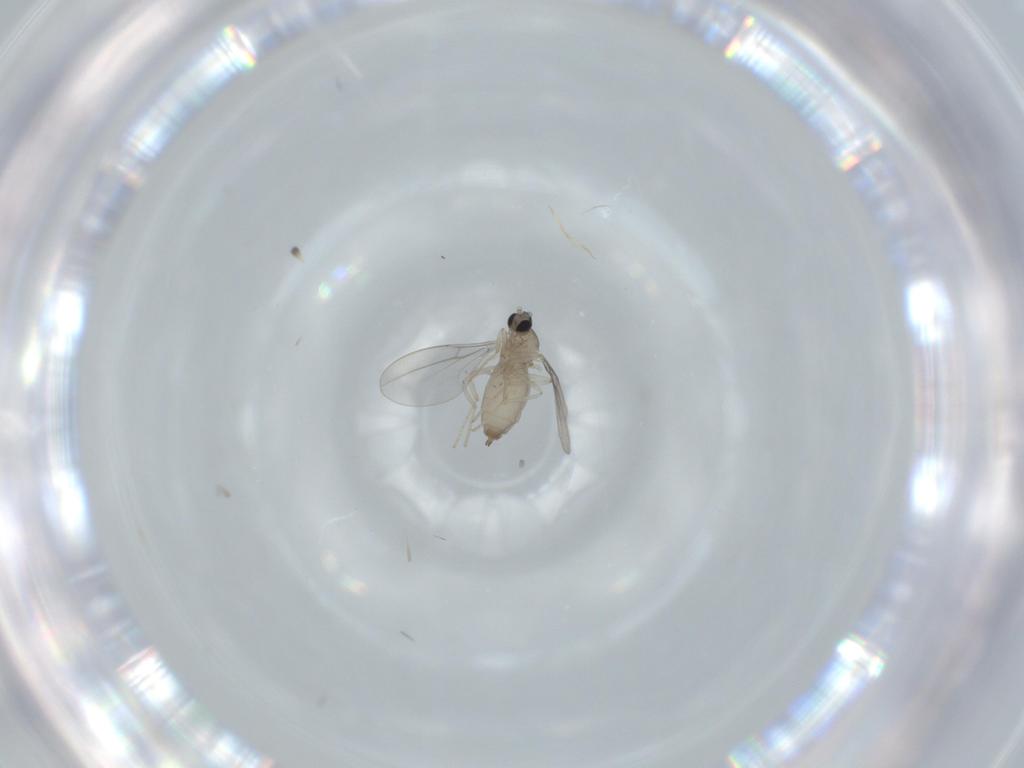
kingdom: Animalia
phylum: Arthropoda
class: Insecta
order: Diptera
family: Cecidomyiidae
